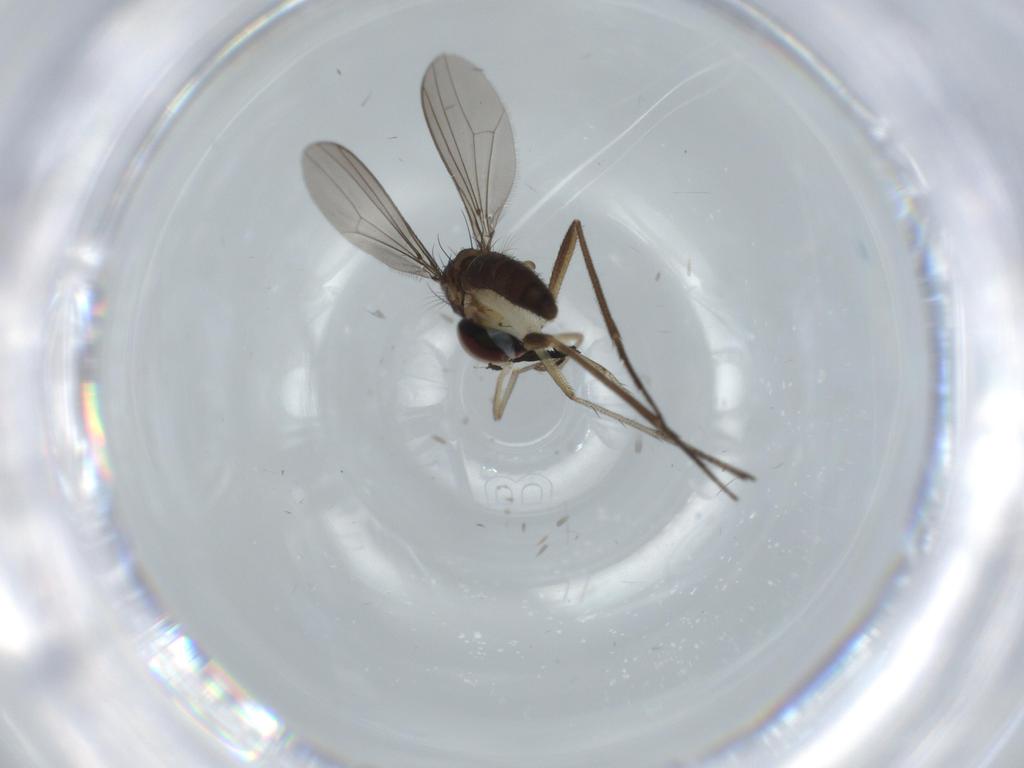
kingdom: Animalia
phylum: Arthropoda
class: Insecta
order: Diptera
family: Dolichopodidae
